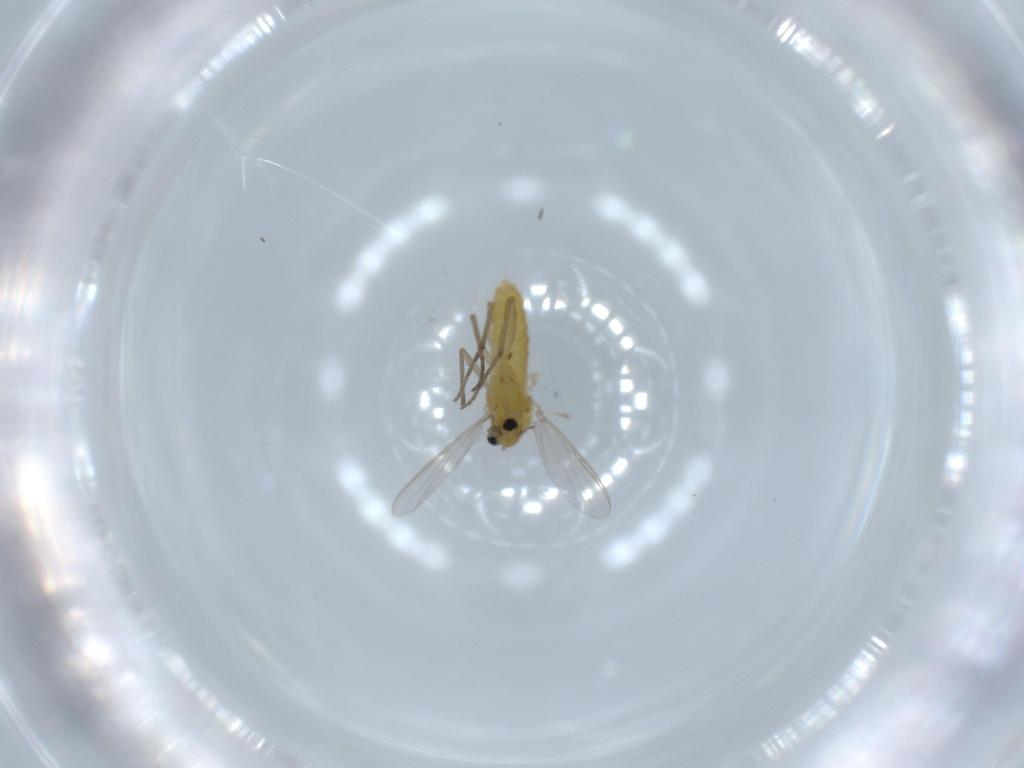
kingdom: Animalia
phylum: Arthropoda
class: Insecta
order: Diptera
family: Chironomidae
